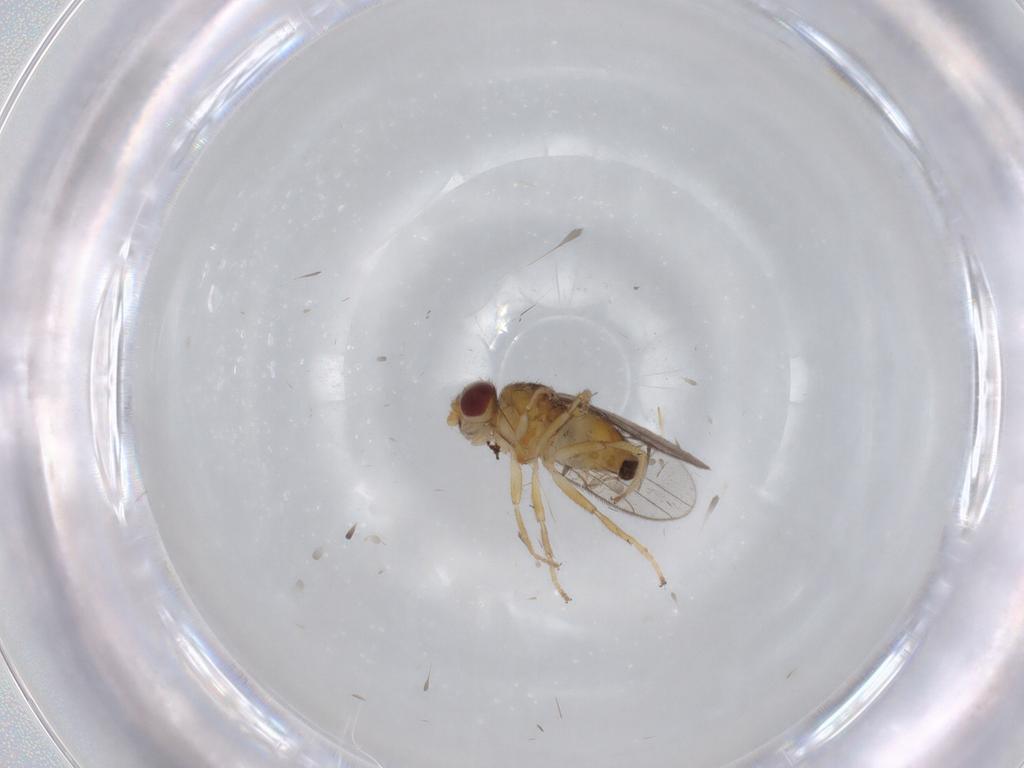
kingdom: Animalia
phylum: Arthropoda
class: Insecta
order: Diptera
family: Chloropidae
